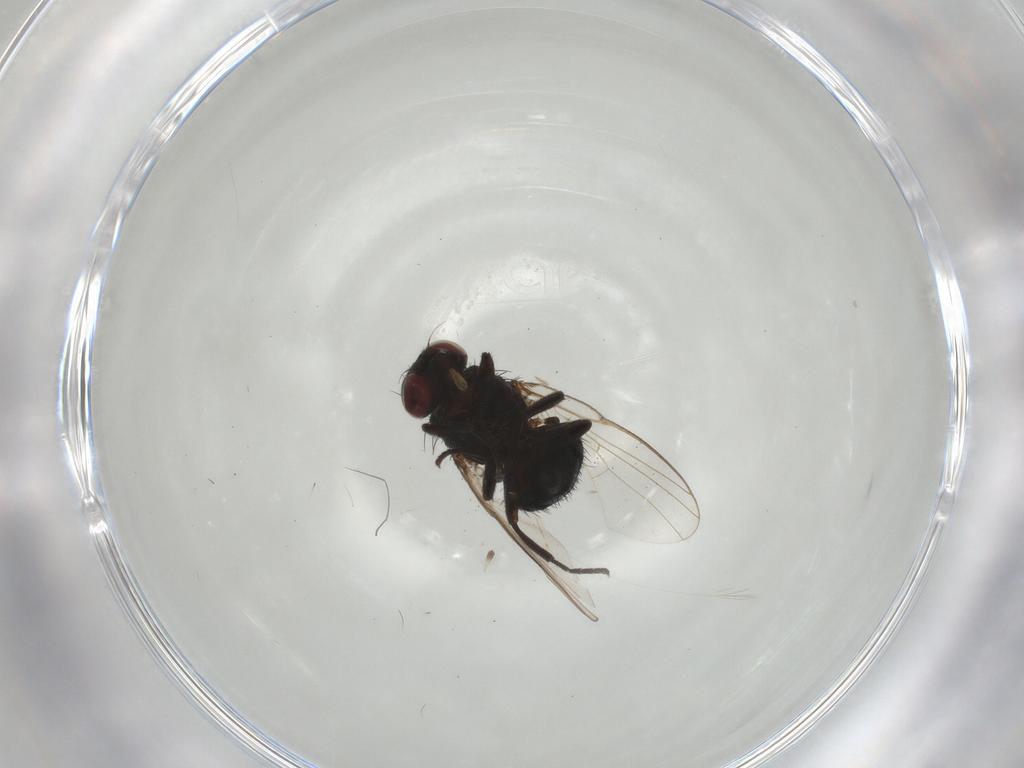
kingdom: Animalia
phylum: Arthropoda
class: Insecta
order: Diptera
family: Agromyzidae
